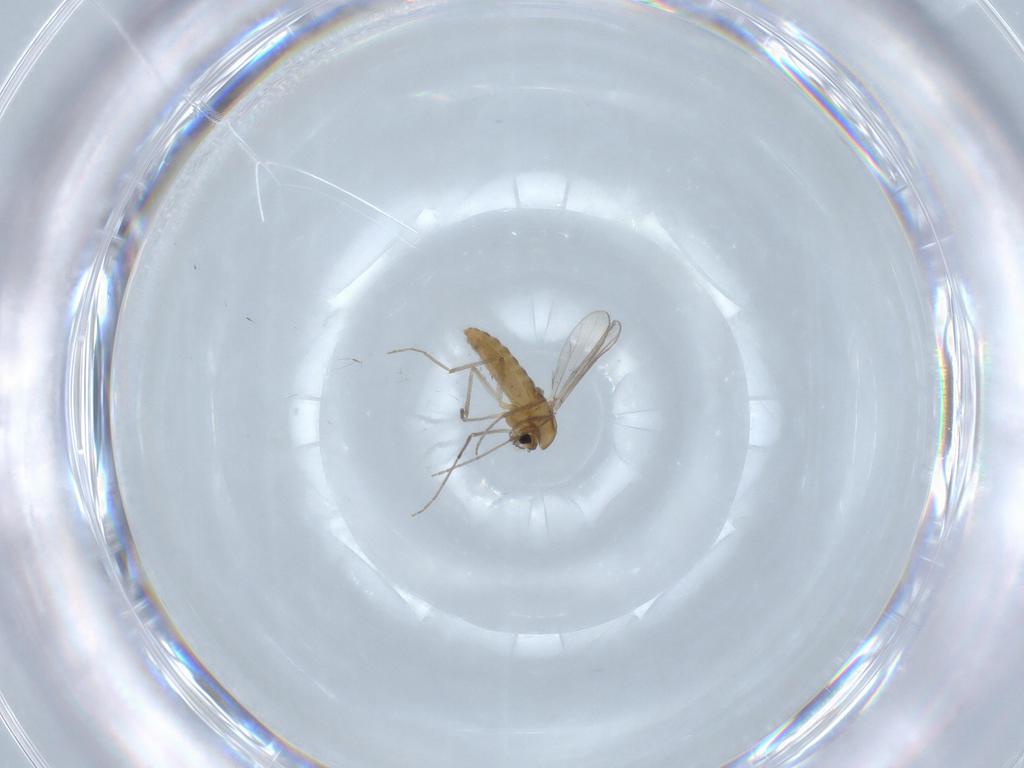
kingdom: Animalia
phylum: Arthropoda
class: Insecta
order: Diptera
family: Chironomidae
